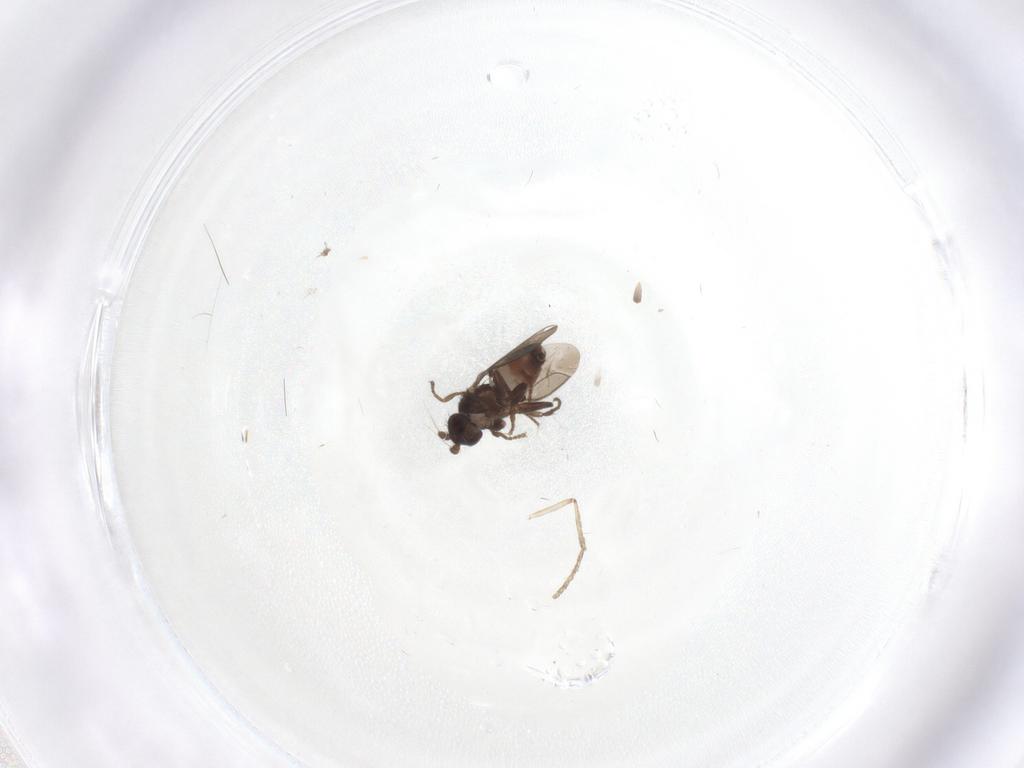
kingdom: Animalia
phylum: Arthropoda
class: Insecta
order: Diptera
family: Sphaeroceridae
